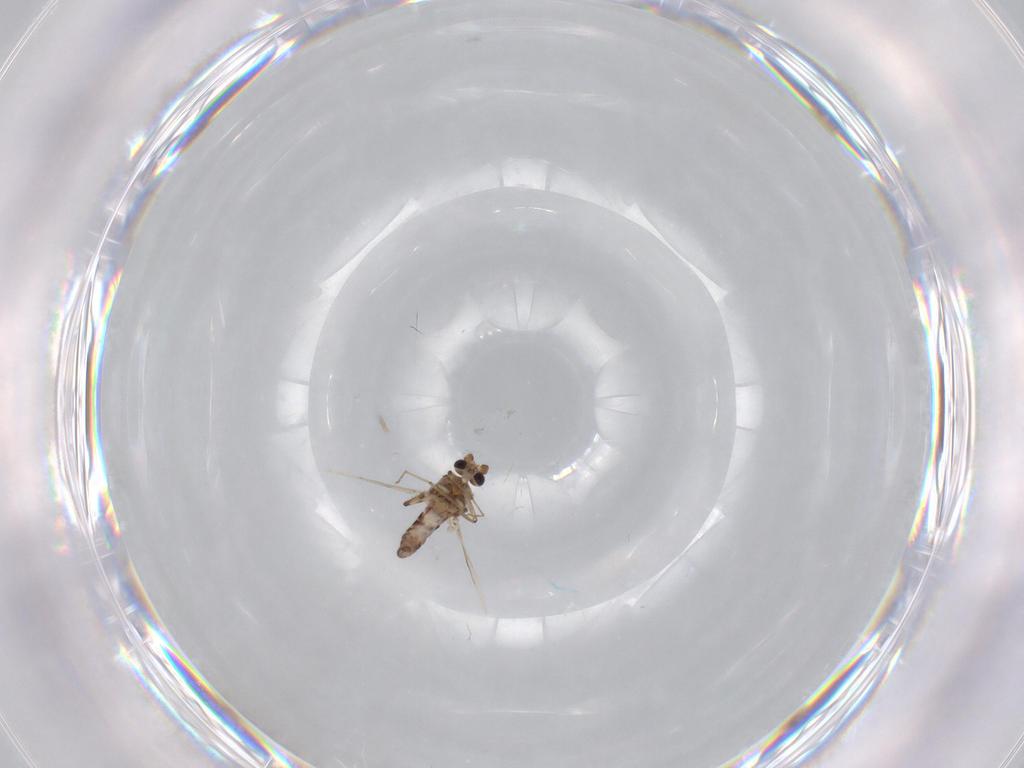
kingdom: Animalia
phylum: Arthropoda
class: Insecta
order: Diptera
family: Ceratopogonidae
